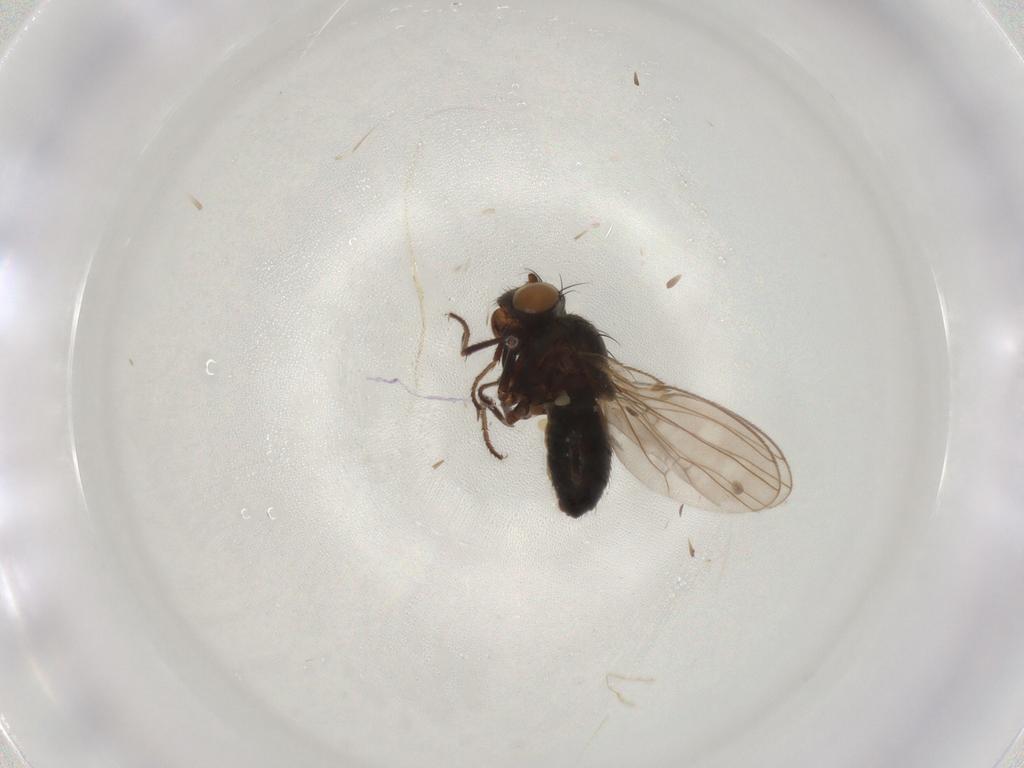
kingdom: Animalia
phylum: Arthropoda
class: Insecta
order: Diptera
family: Ephydridae
